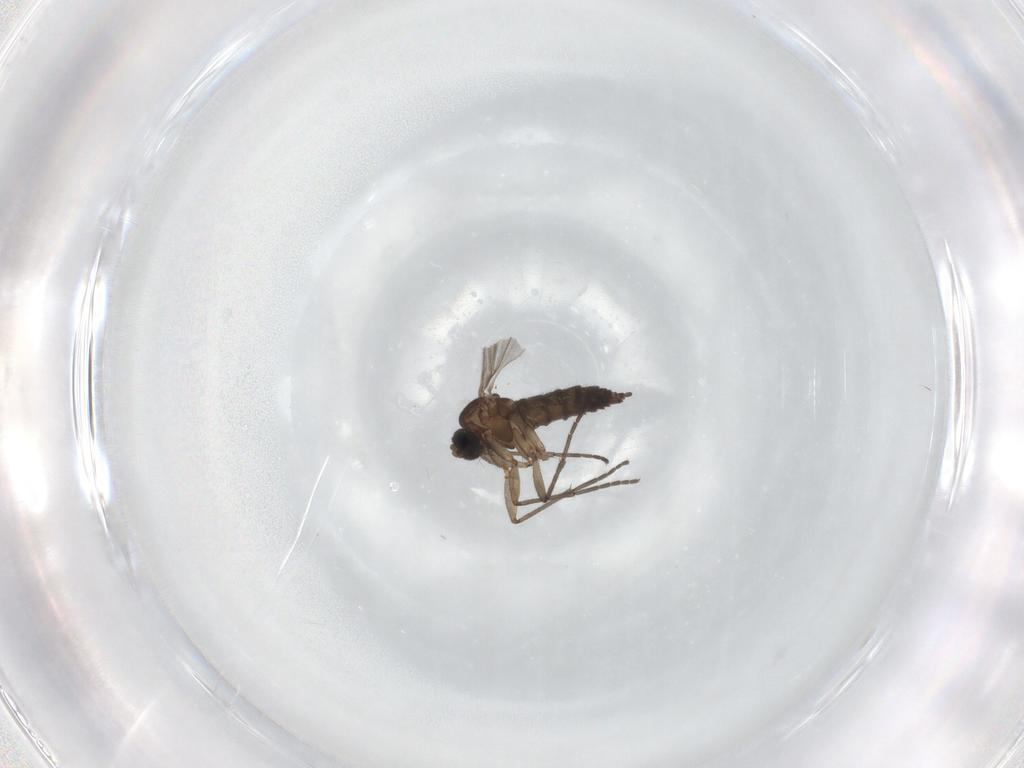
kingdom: Animalia
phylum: Arthropoda
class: Insecta
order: Diptera
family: Sciaridae
